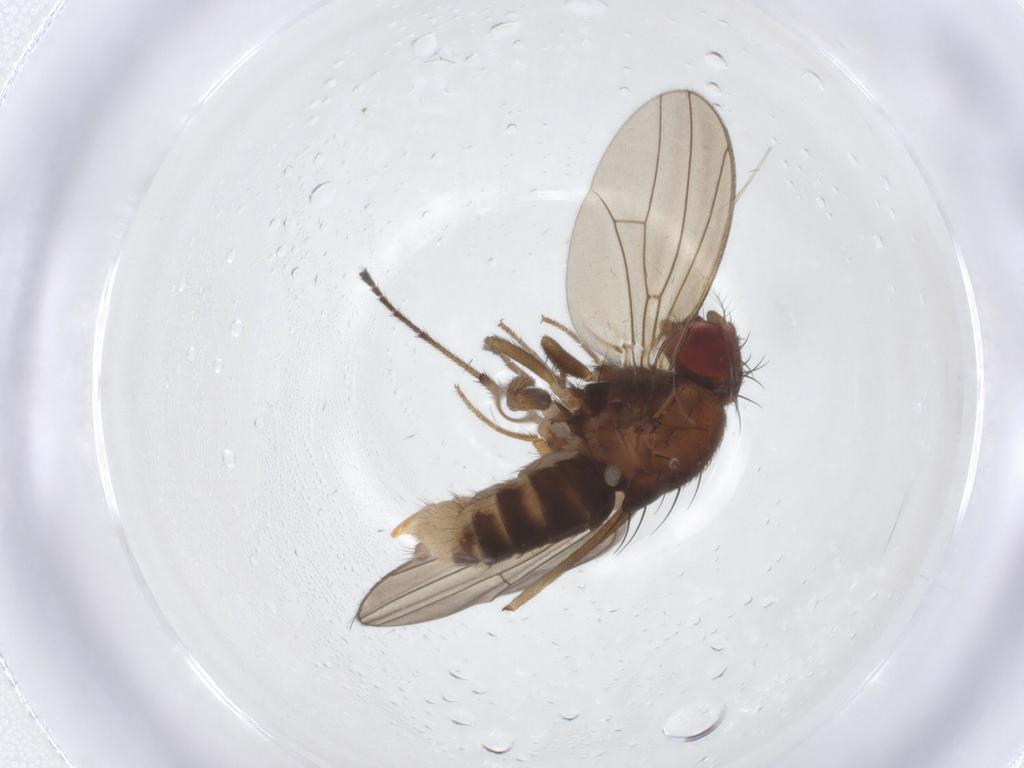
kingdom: Animalia
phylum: Arthropoda
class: Insecta
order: Diptera
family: Drosophilidae
